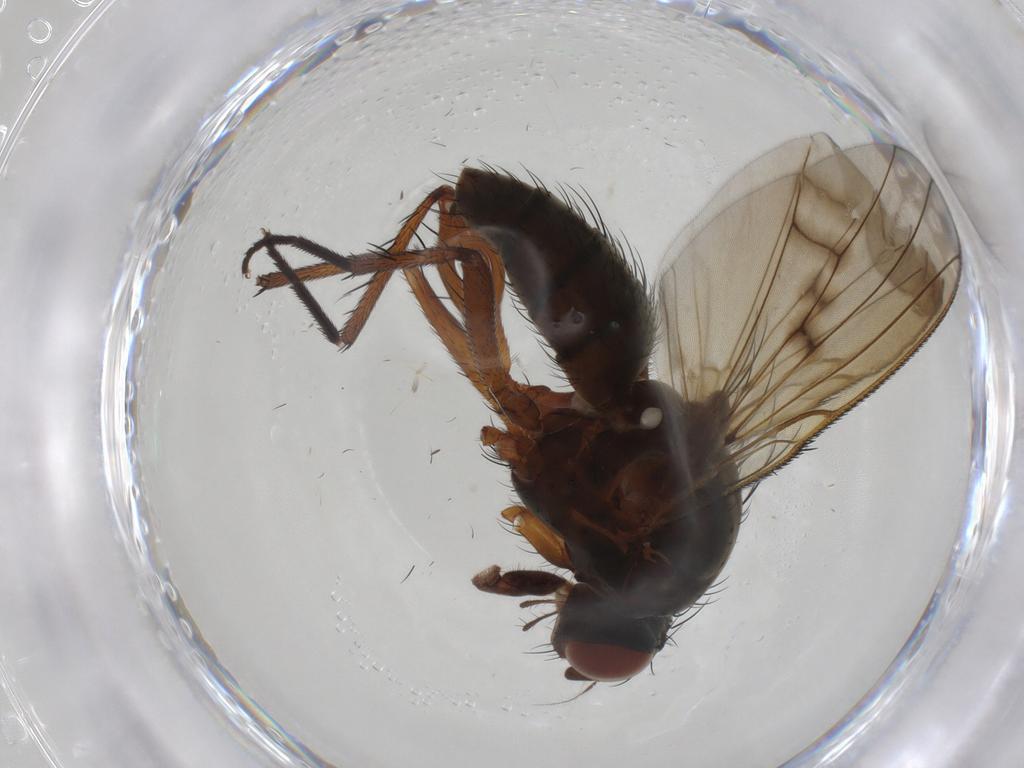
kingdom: Animalia
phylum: Arthropoda
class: Insecta
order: Diptera
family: Anthomyiidae
